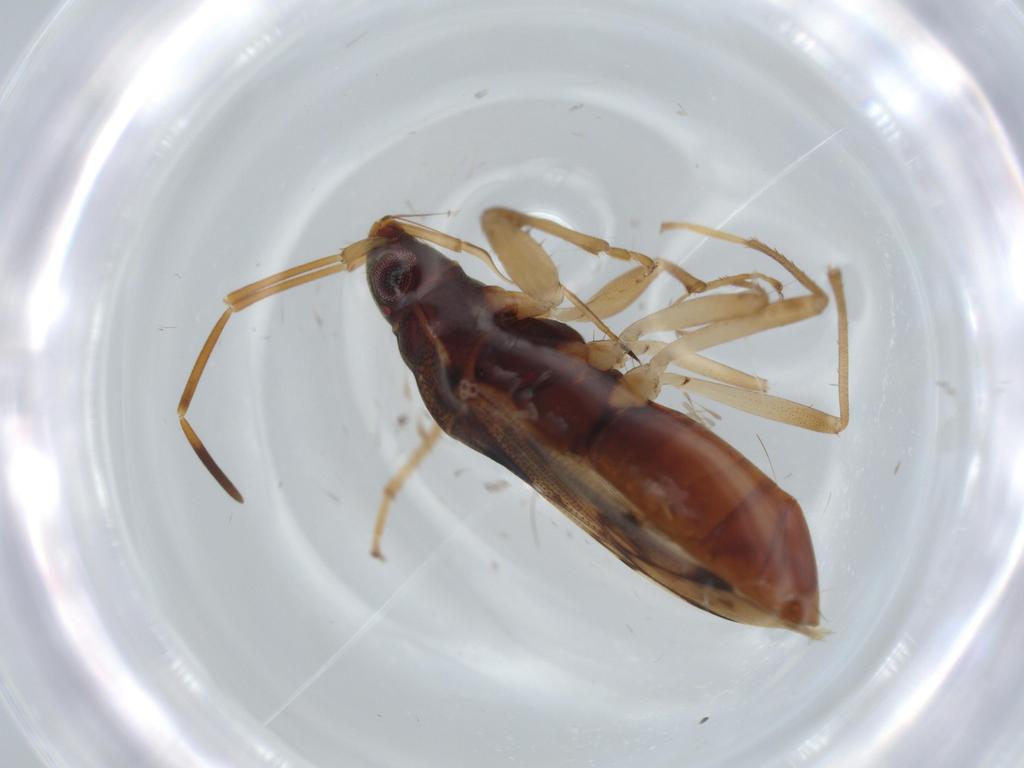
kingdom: Animalia
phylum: Arthropoda
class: Insecta
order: Hemiptera
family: Rhyparochromidae
